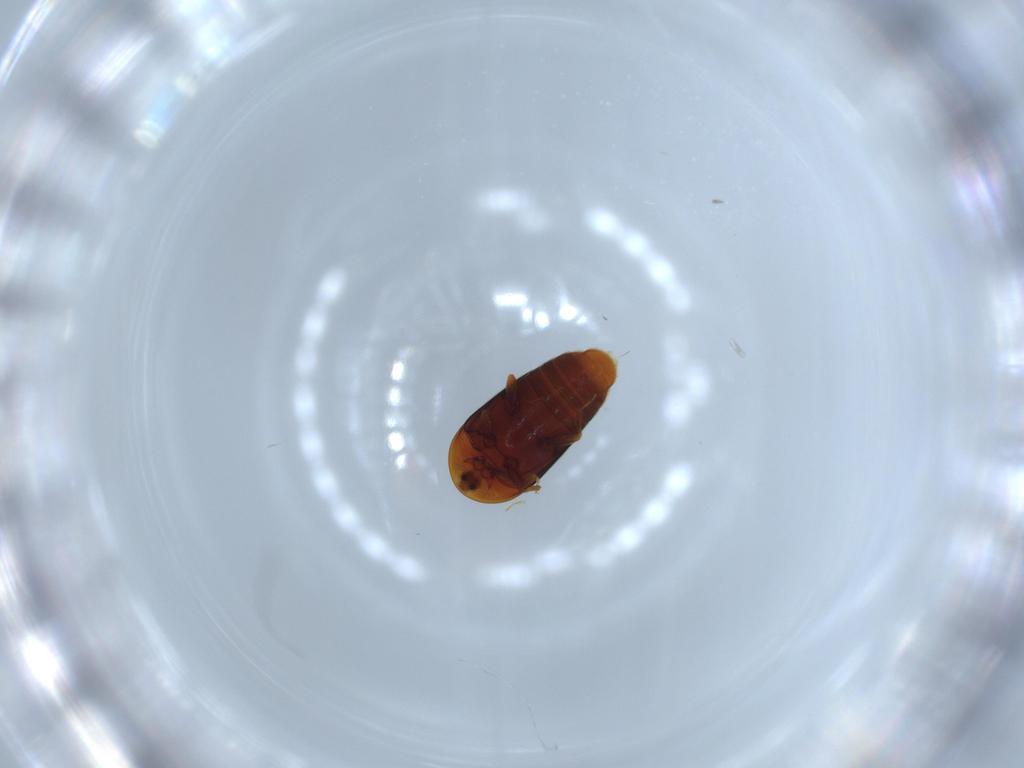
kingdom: Animalia
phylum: Arthropoda
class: Insecta
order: Coleoptera
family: Corylophidae
